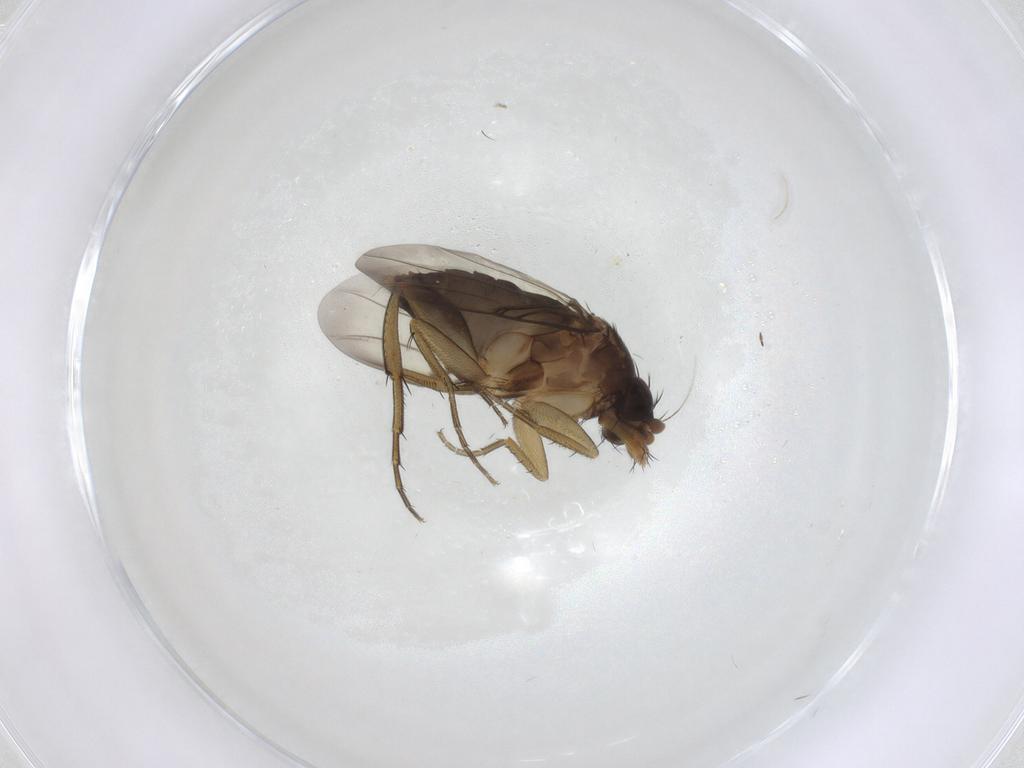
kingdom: Animalia
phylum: Arthropoda
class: Insecta
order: Diptera
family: Phoridae
